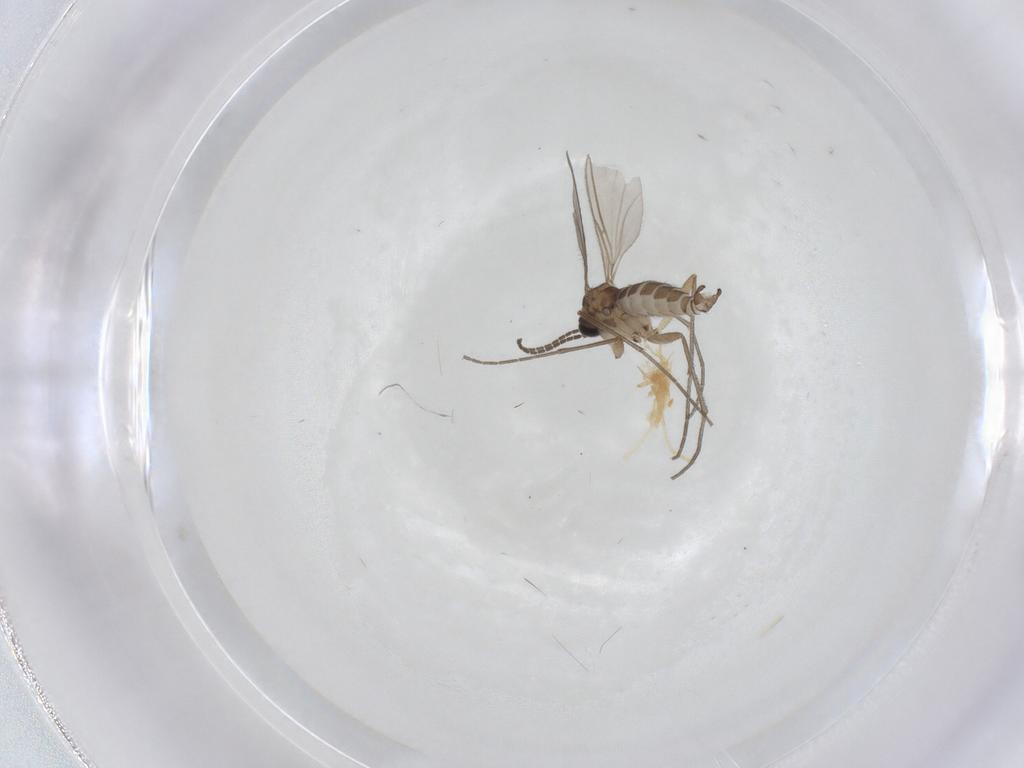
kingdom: Animalia
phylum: Arthropoda
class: Insecta
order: Diptera
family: Sciaridae
